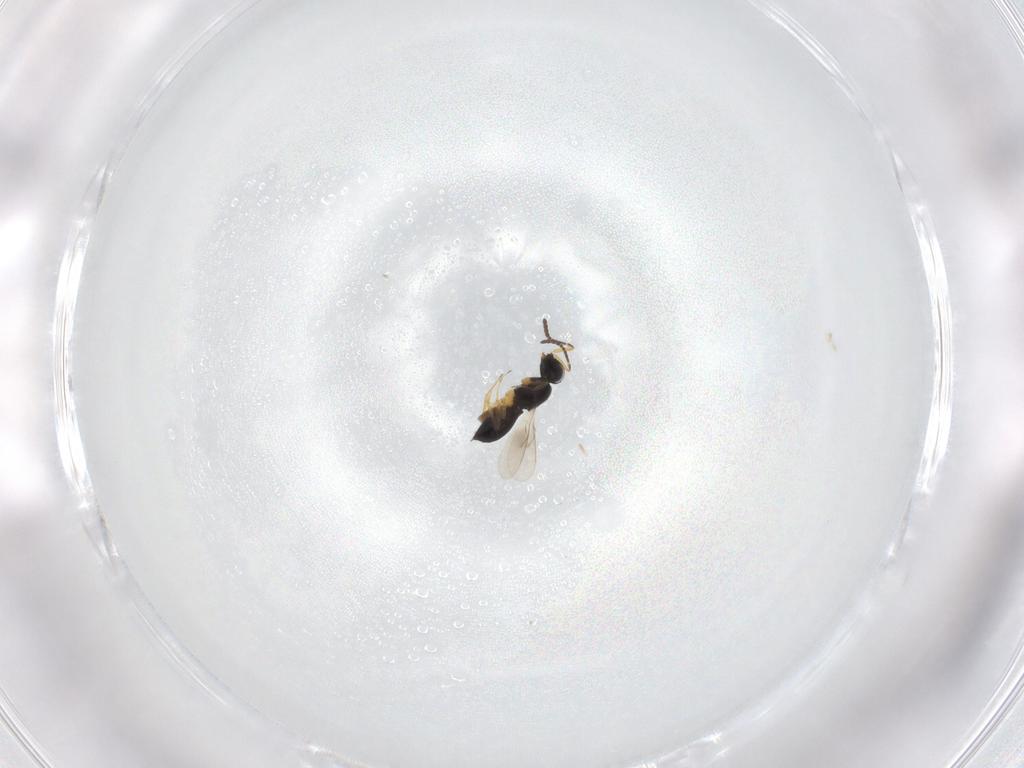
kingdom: Animalia
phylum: Arthropoda
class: Insecta
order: Hymenoptera
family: Scelionidae
